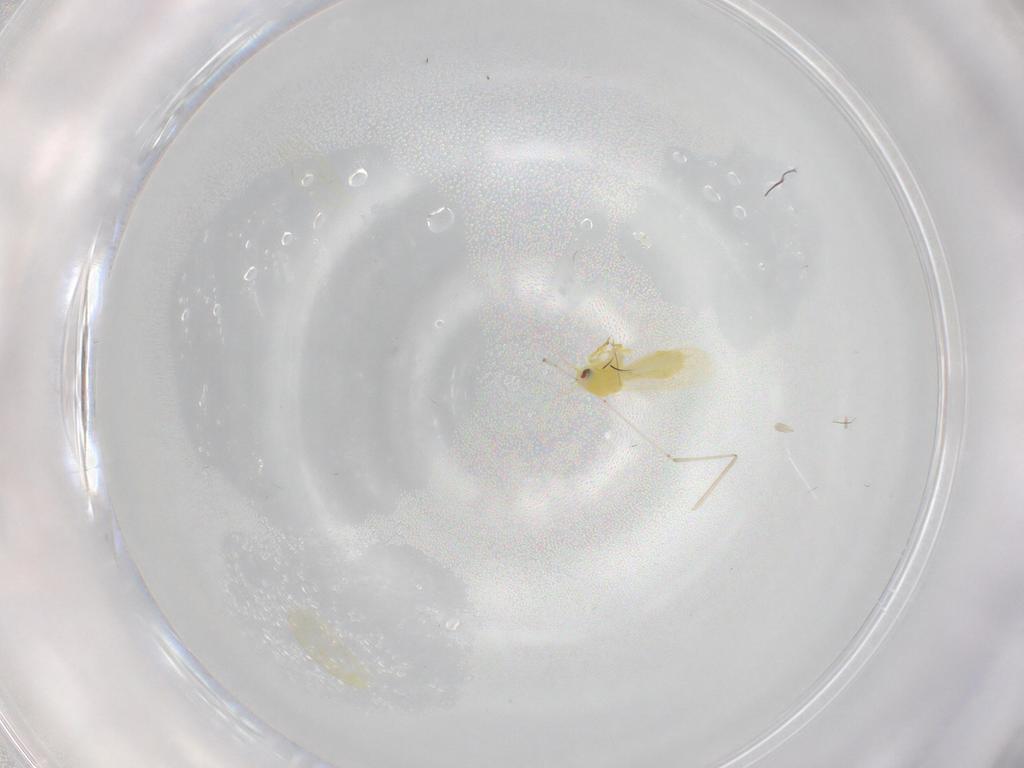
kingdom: Animalia
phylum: Arthropoda
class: Insecta
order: Hemiptera
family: Aleyrodidae
